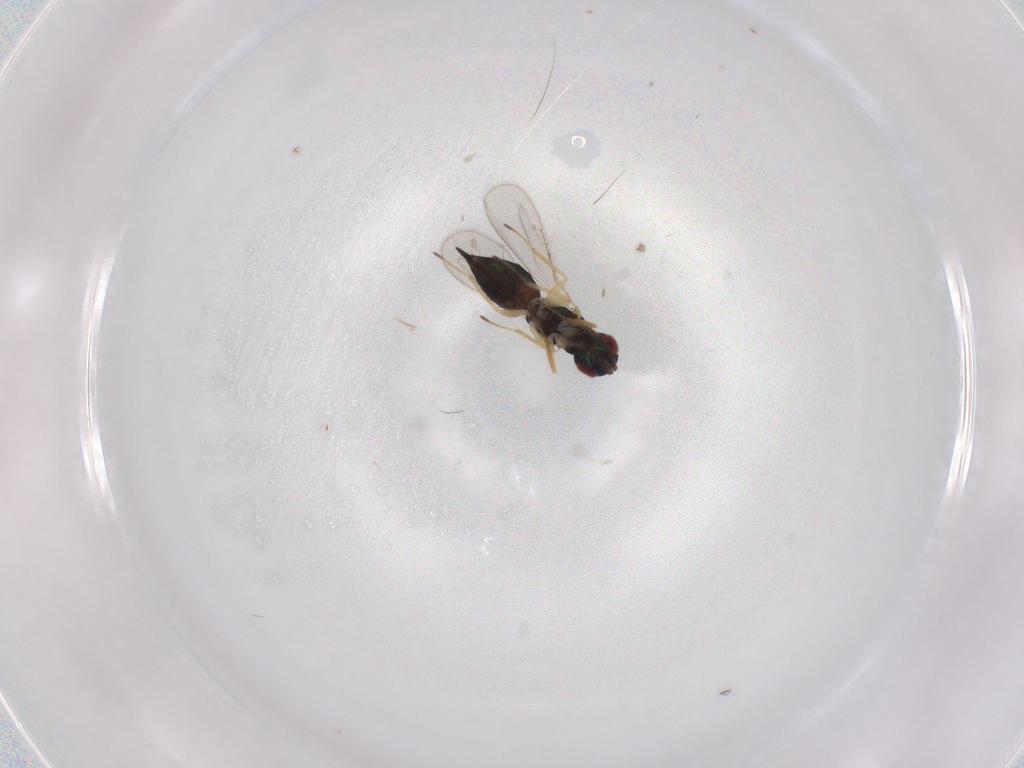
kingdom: Animalia
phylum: Arthropoda
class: Insecta
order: Hymenoptera
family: Eulophidae
